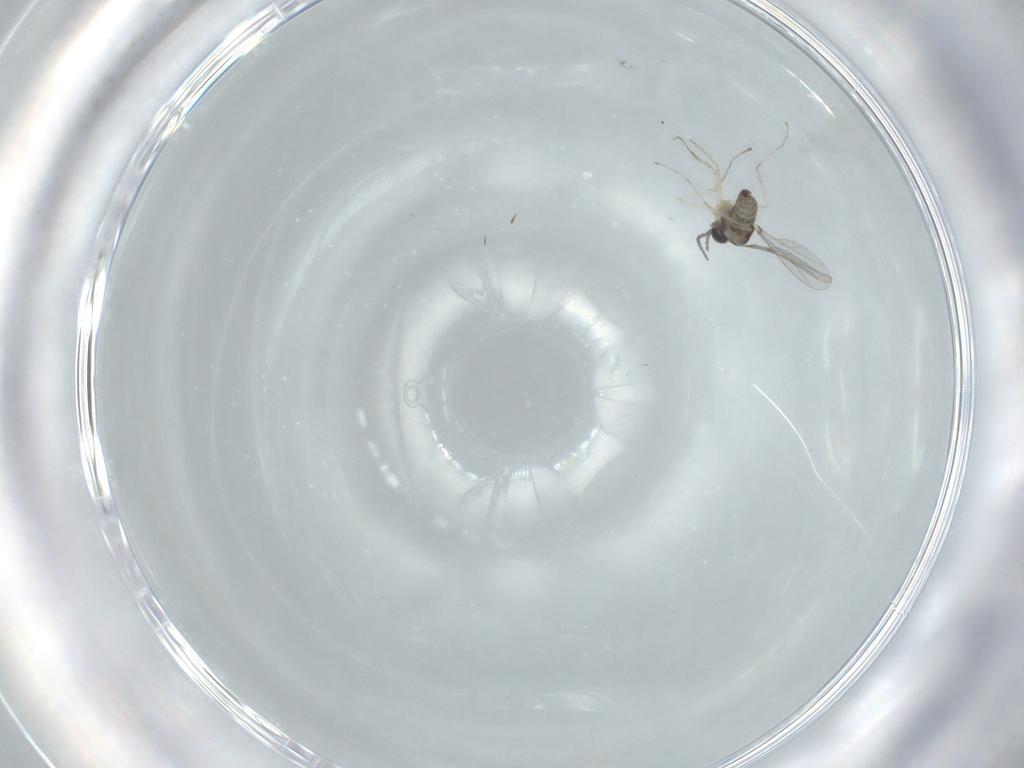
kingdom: Animalia
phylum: Arthropoda
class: Insecta
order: Diptera
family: Cecidomyiidae
